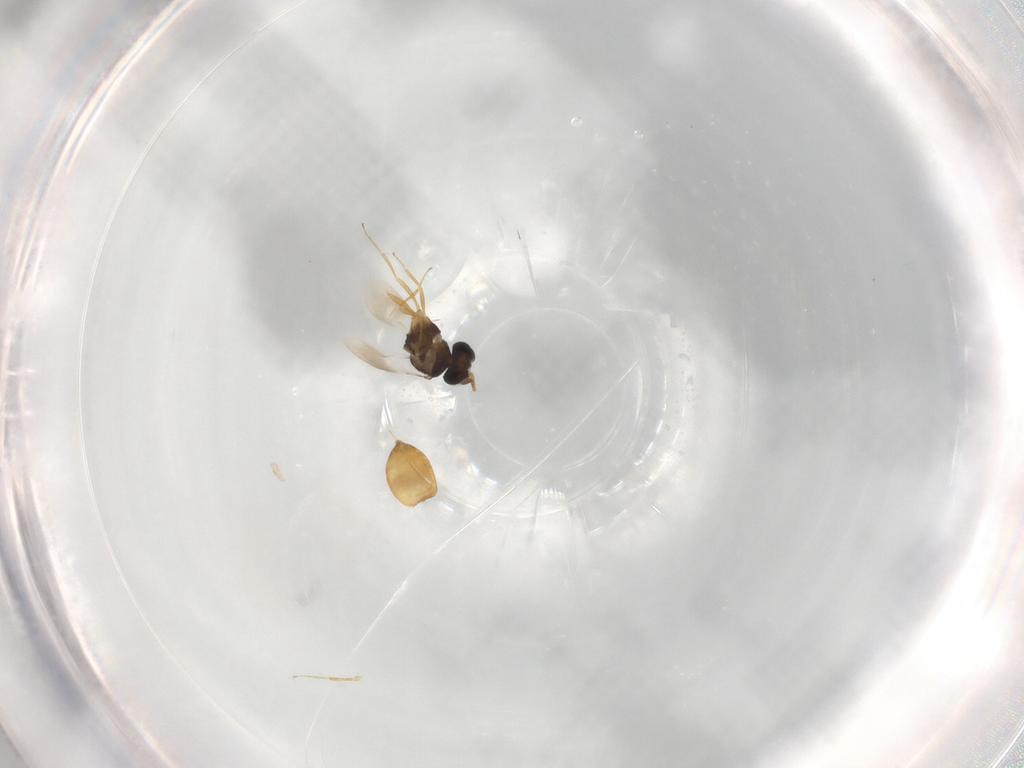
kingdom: Animalia
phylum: Arthropoda
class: Insecta
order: Hymenoptera
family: Scelionidae
